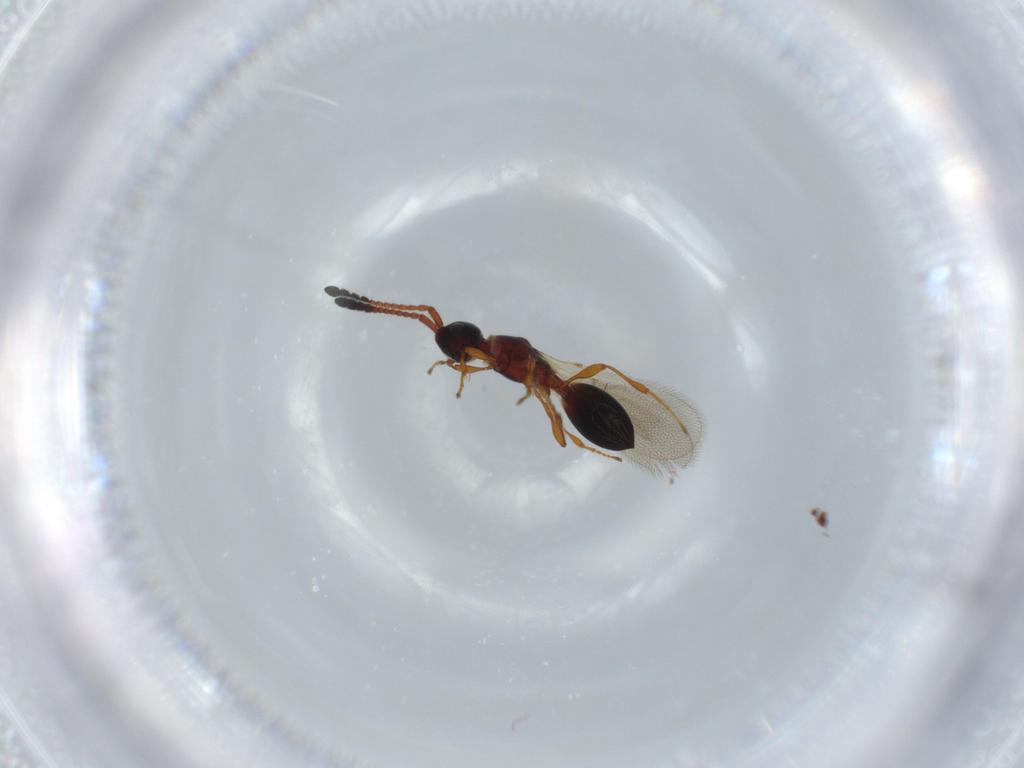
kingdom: Animalia
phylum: Arthropoda
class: Insecta
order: Hymenoptera
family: Diapriidae
